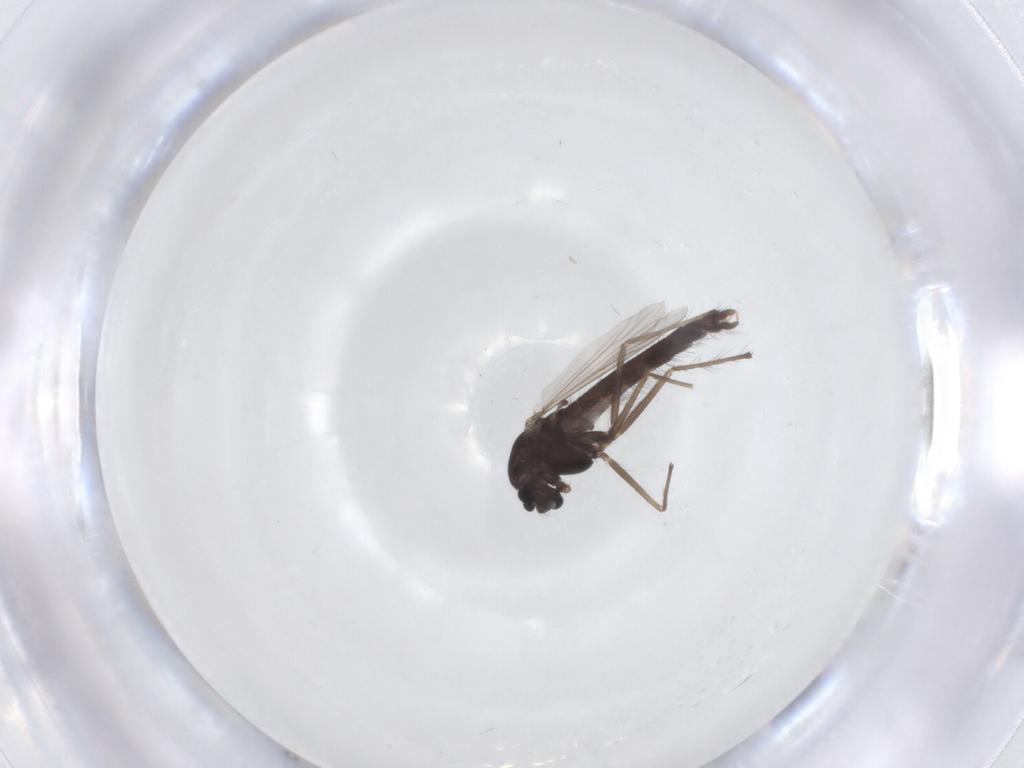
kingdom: Animalia
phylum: Arthropoda
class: Insecta
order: Diptera
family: Chironomidae
